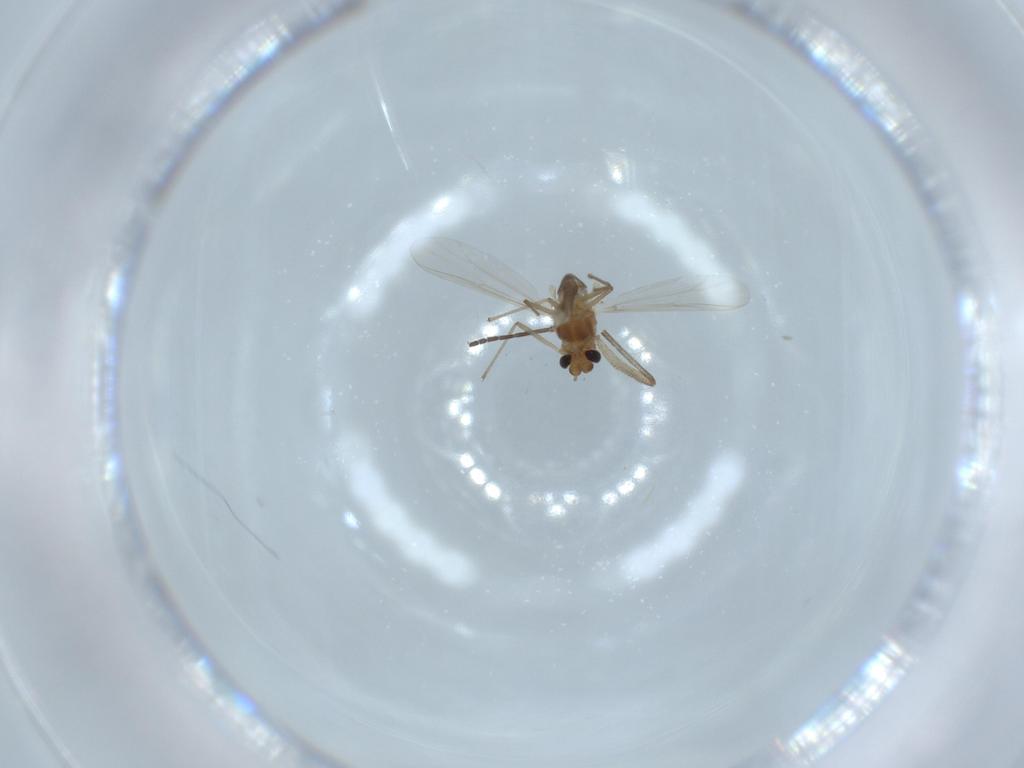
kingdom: Animalia
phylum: Arthropoda
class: Insecta
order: Diptera
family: Chironomidae
